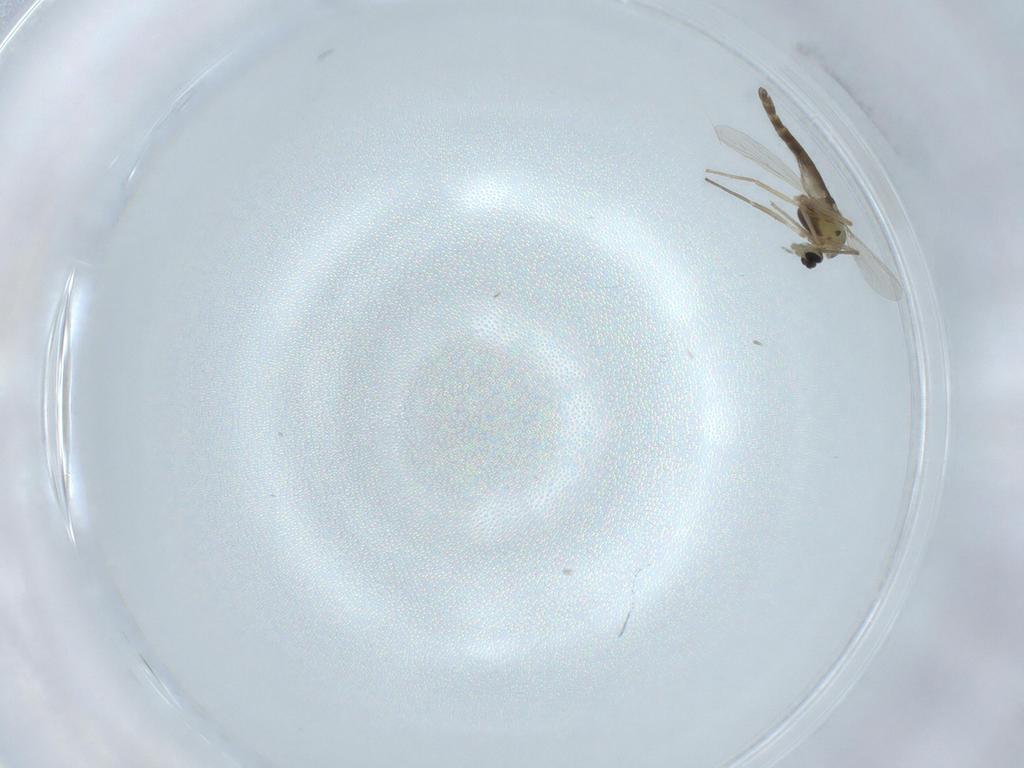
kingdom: Animalia
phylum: Arthropoda
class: Insecta
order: Diptera
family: Chironomidae
